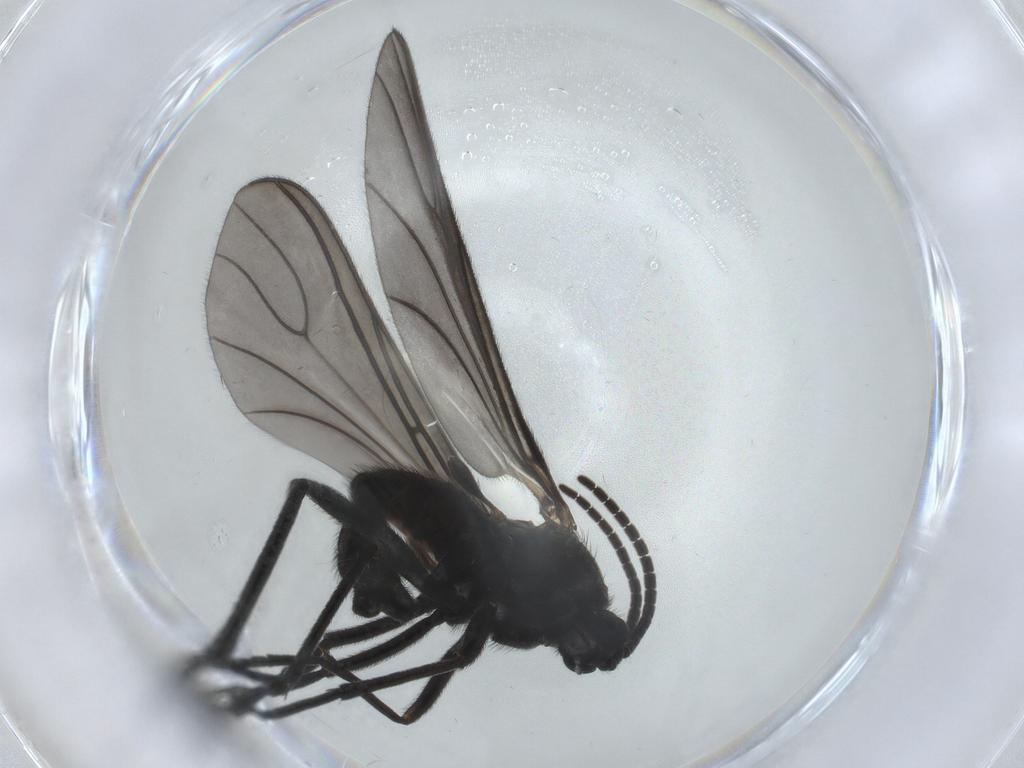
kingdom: Animalia
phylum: Arthropoda
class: Insecta
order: Diptera
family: Sciaridae
